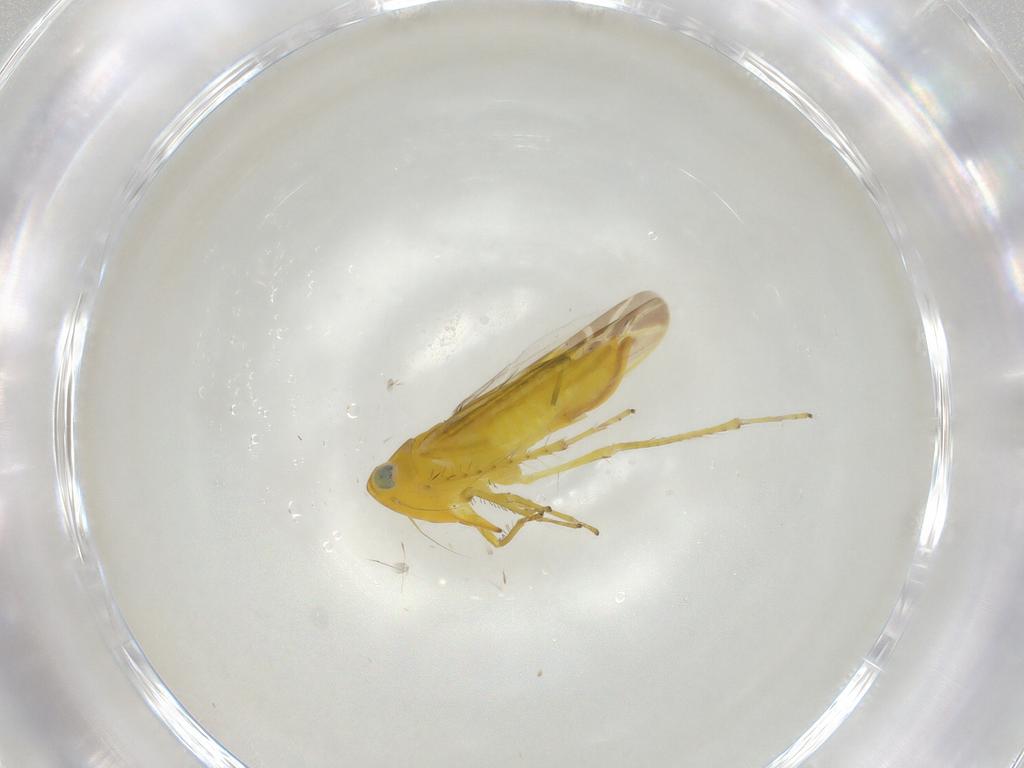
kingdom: Animalia
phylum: Arthropoda
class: Insecta
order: Hemiptera
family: Cicadellidae
